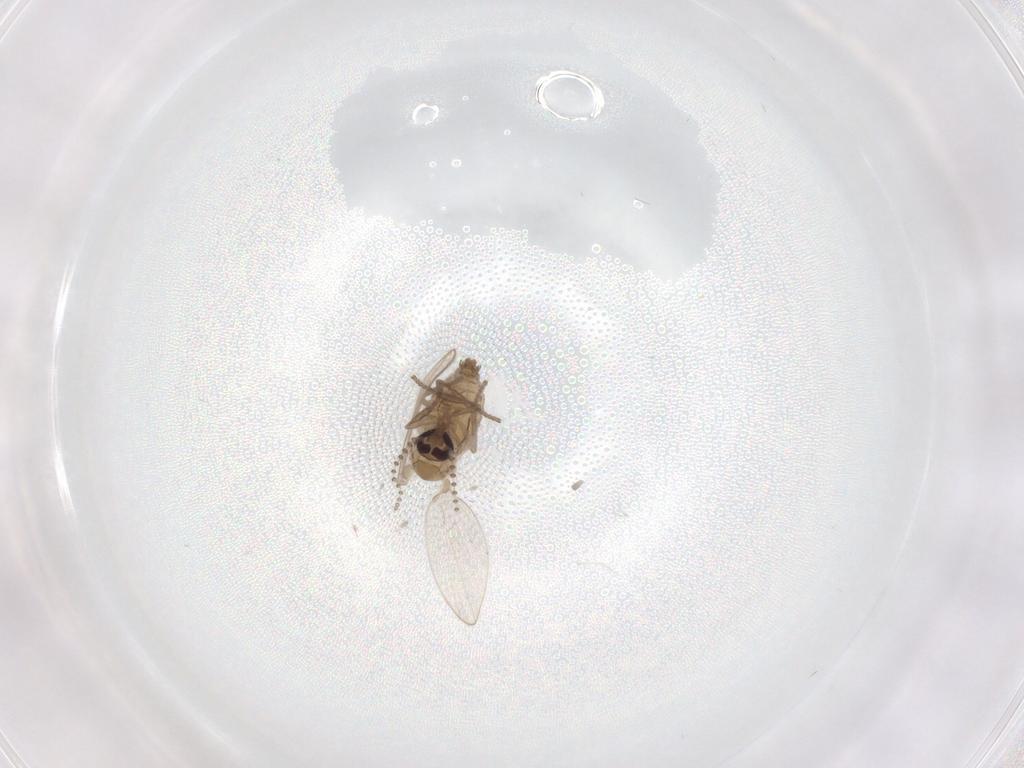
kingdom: Animalia
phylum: Arthropoda
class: Insecta
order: Diptera
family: Psychodidae
